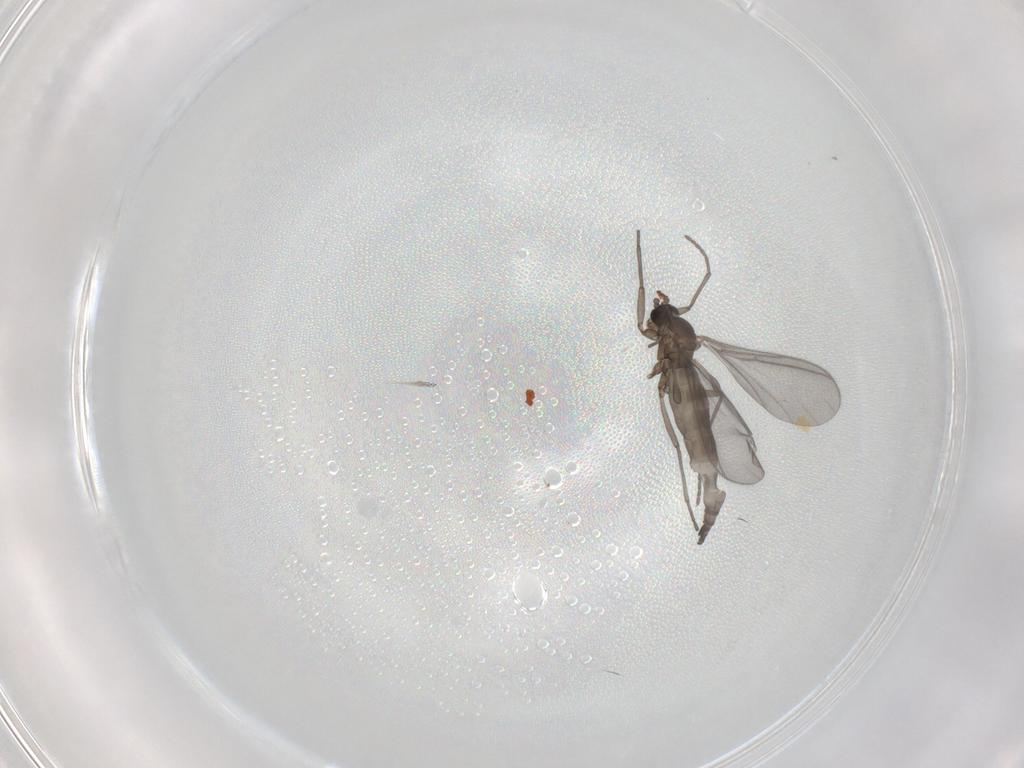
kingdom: Animalia
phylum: Arthropoda
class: Insecta
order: Diptera
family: Sciaridae
